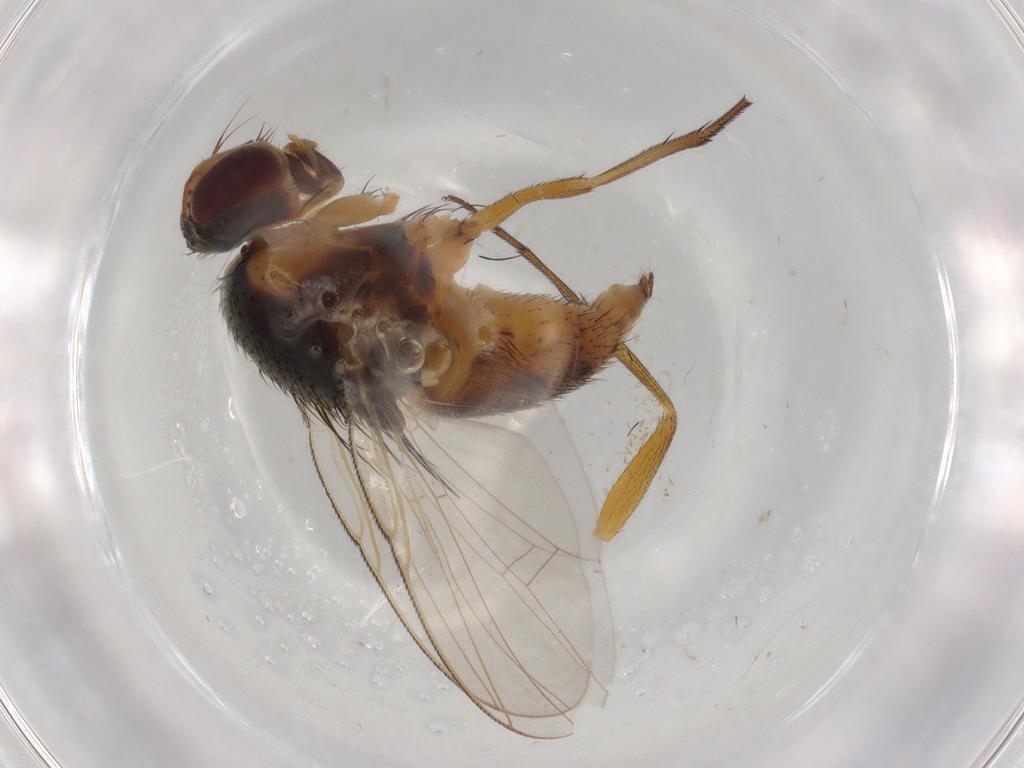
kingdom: Animalia
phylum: Arthropoda
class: Insecta
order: Diptera
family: Muscidae
